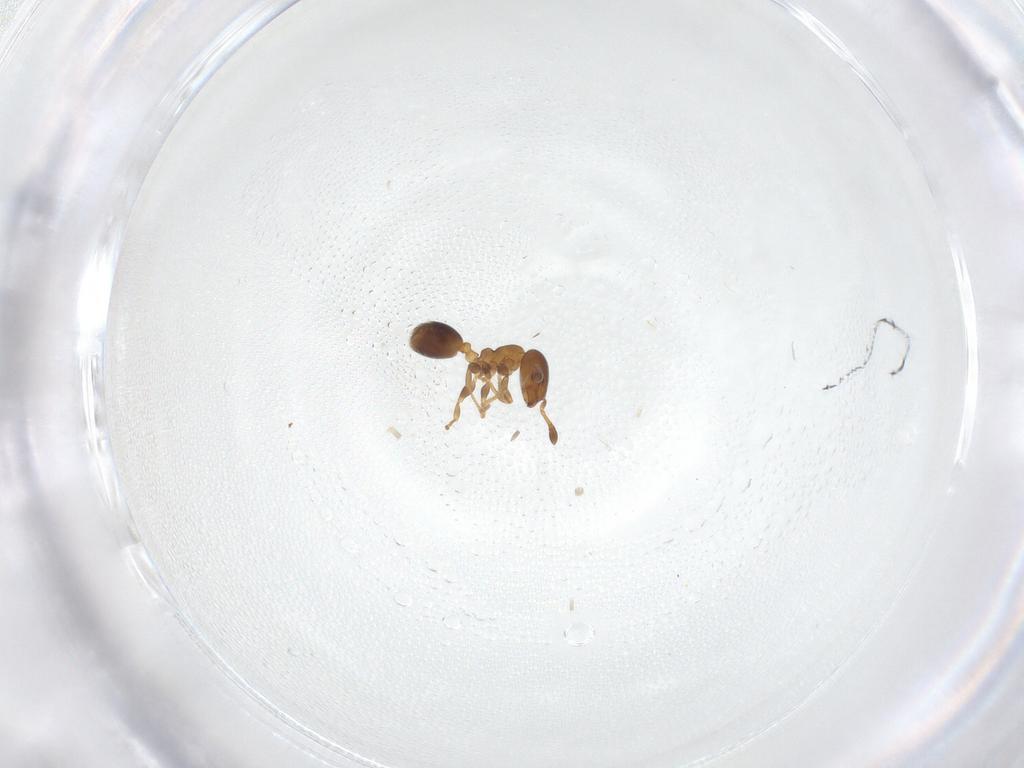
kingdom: Animalia
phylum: Arthropoda
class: Insecta
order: Hymenoptera
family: Formicidae
